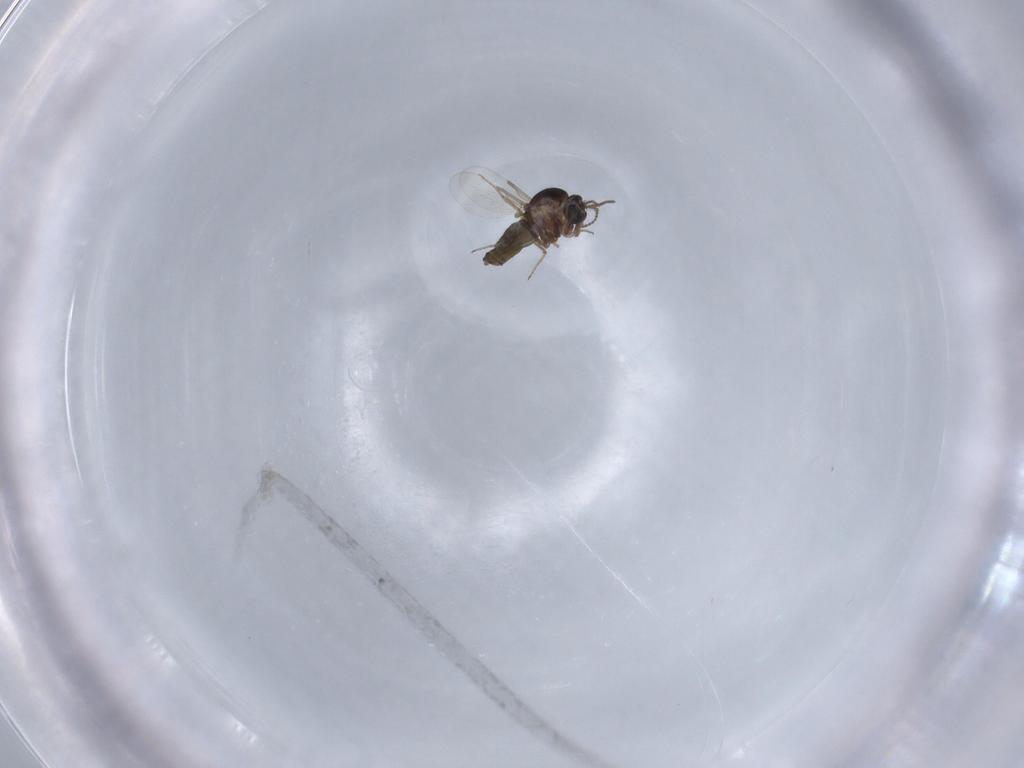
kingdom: Animalia
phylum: Arthropoda
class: Insecta
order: Diptera
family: Ceratopogonidae
